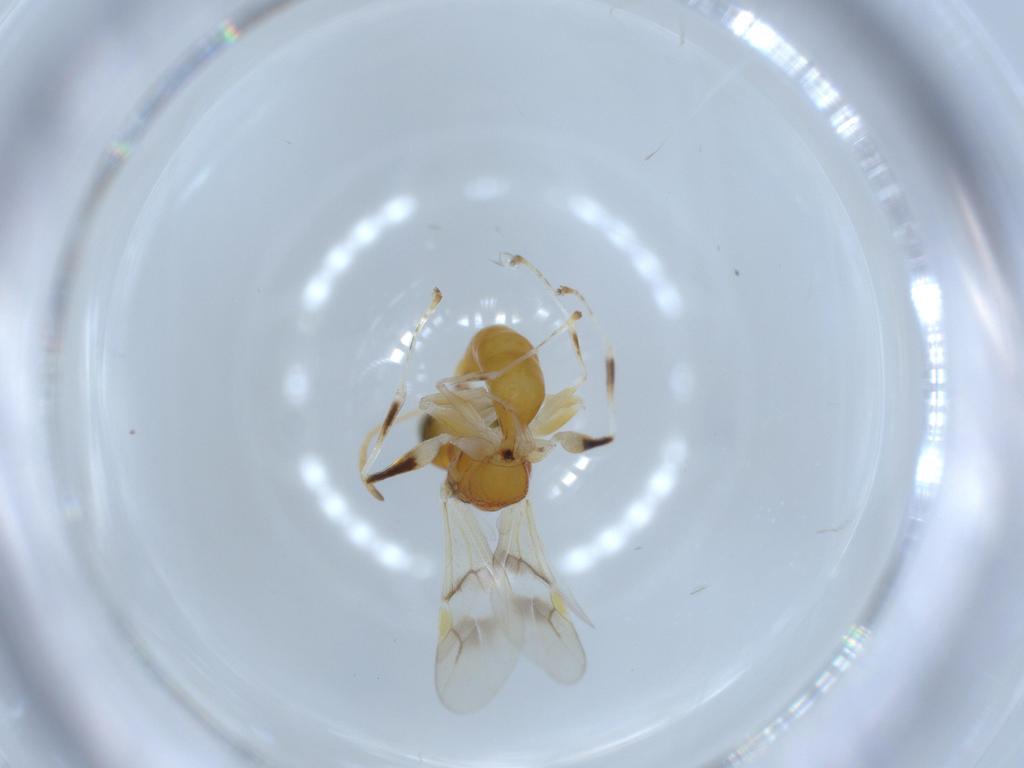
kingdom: Animalia
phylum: Arthropoda
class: Insecta
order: Hymenoptera
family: Dryinidae
